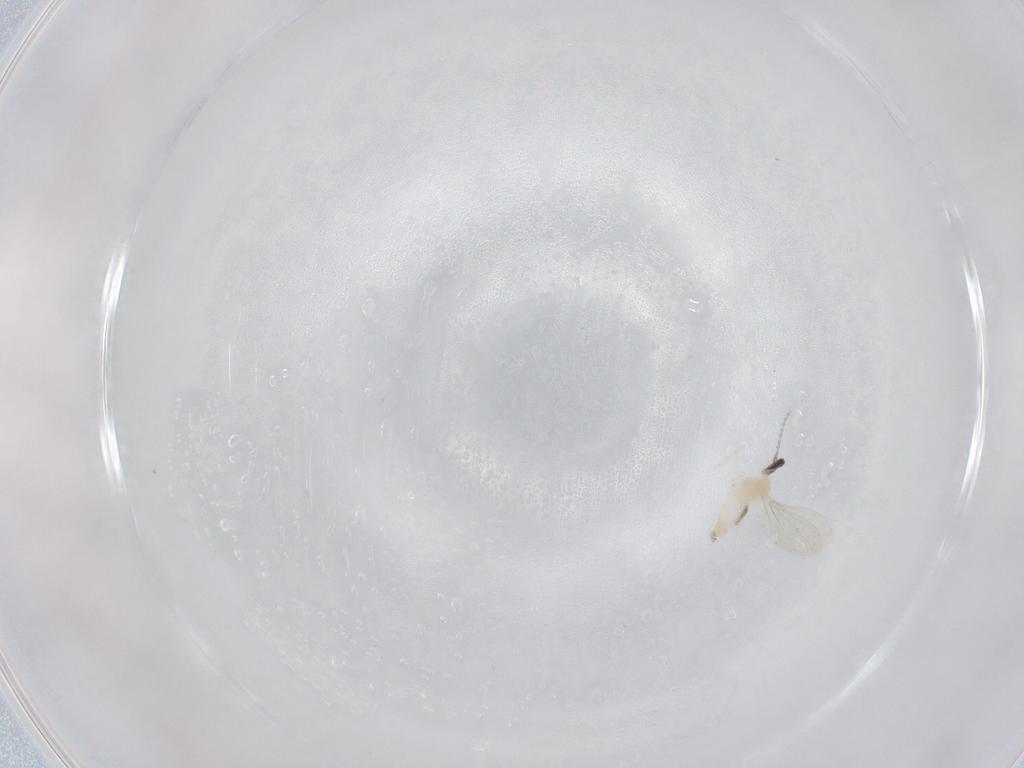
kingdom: Animalia
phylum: Arthropoda
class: Insecta
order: Diptera
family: Cecidomyiidae
